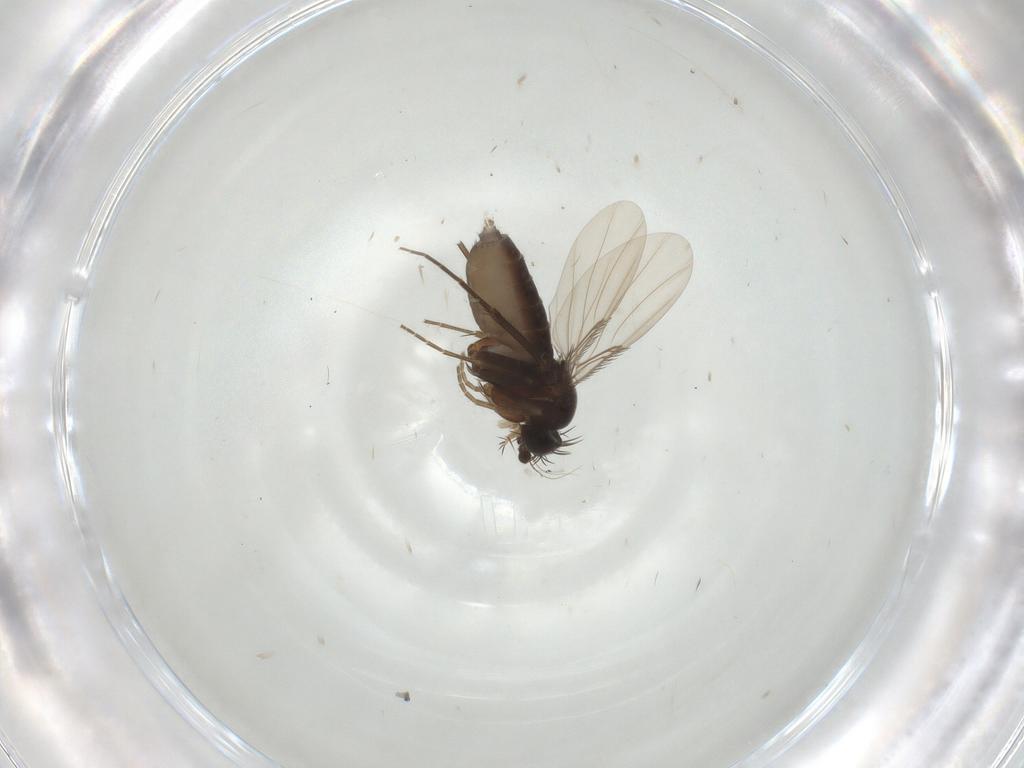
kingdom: Animalia
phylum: Arthropoda
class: Insecta
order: Diptera
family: Phoridae
